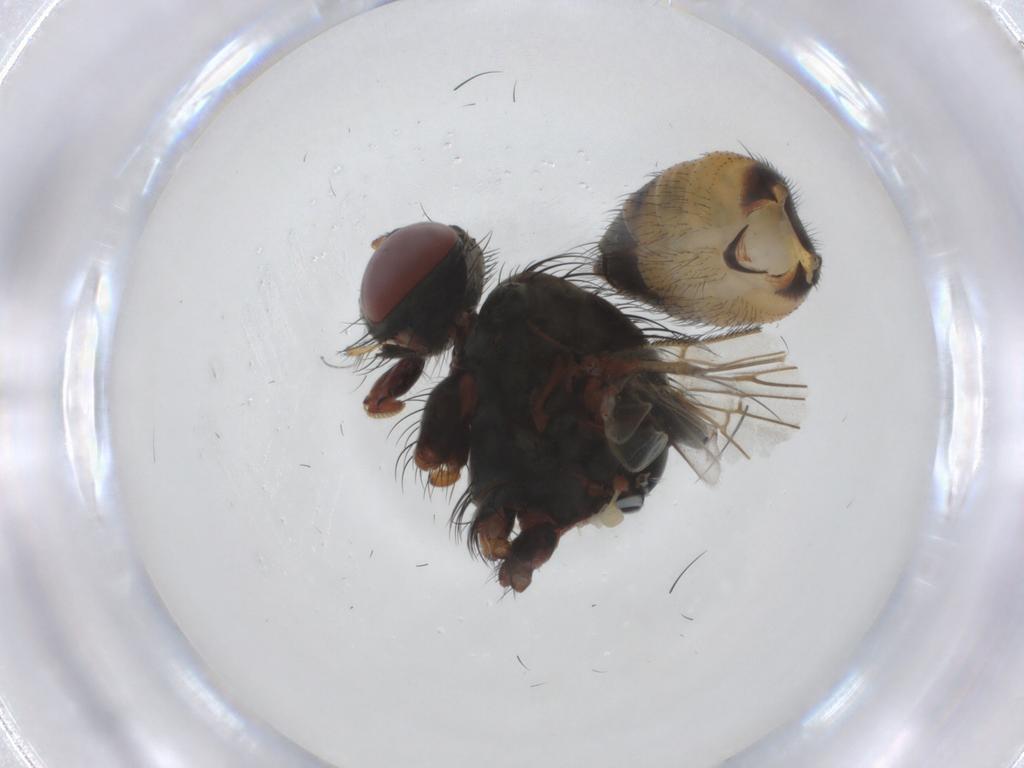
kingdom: Animalia
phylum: Arthropoda
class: Insecta
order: Diptera
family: Muscidae
